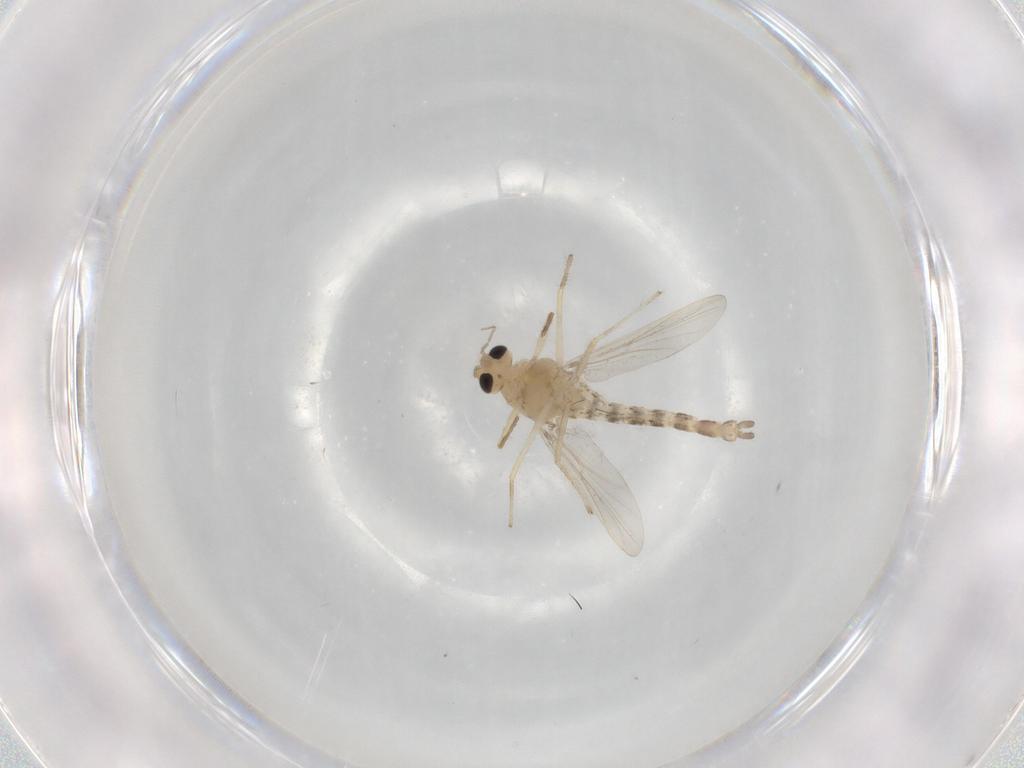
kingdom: Animalia
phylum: Arthropoda
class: Insecta
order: Diptera
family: Chironomidae
